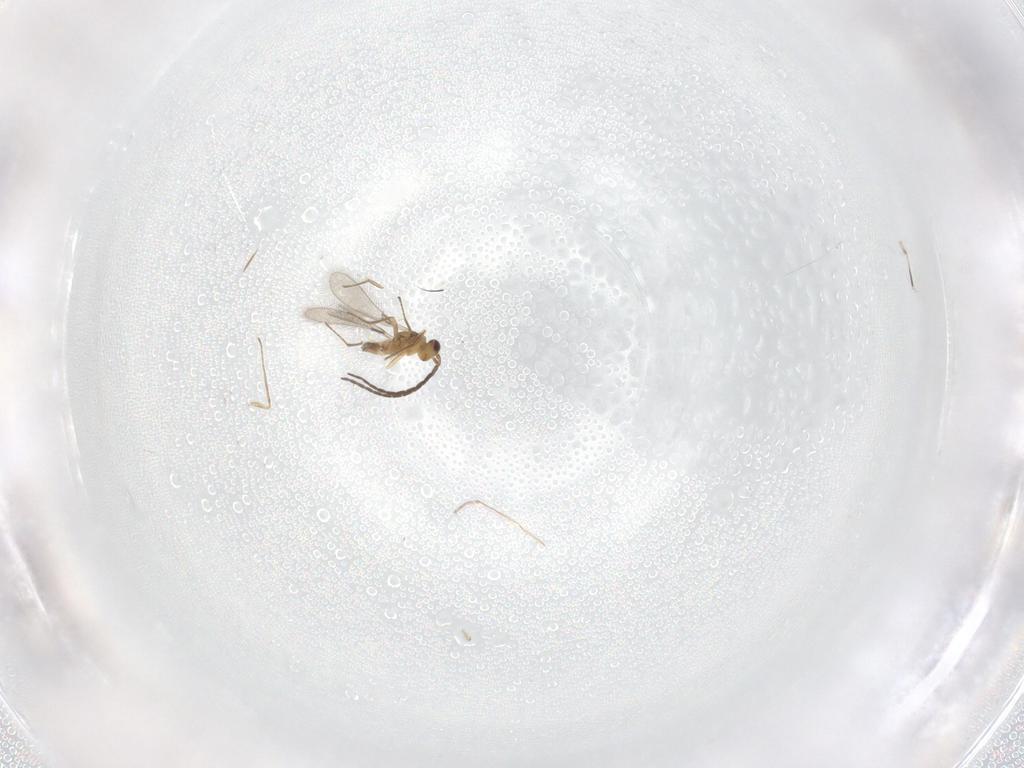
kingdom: Animalia
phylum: Arthropoda
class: Insecta
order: Hymenoptera
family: Mymaridae
